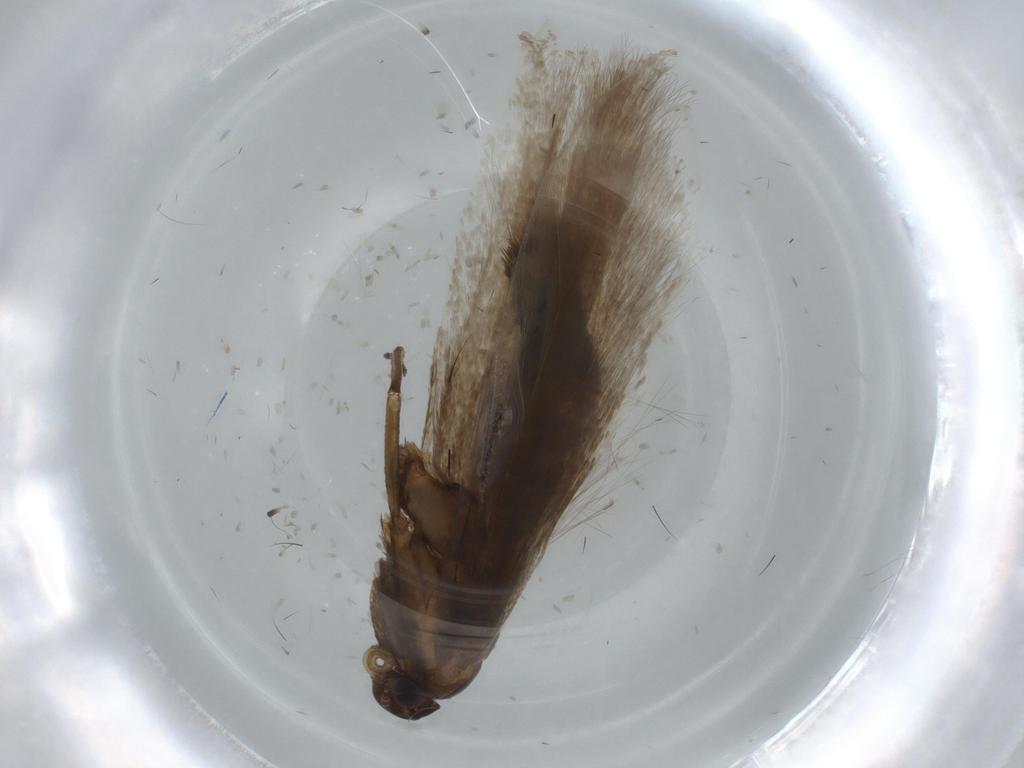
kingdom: Animalia
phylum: Arthropoda
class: Insecta
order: Lepidoptera
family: Gelechiidae
